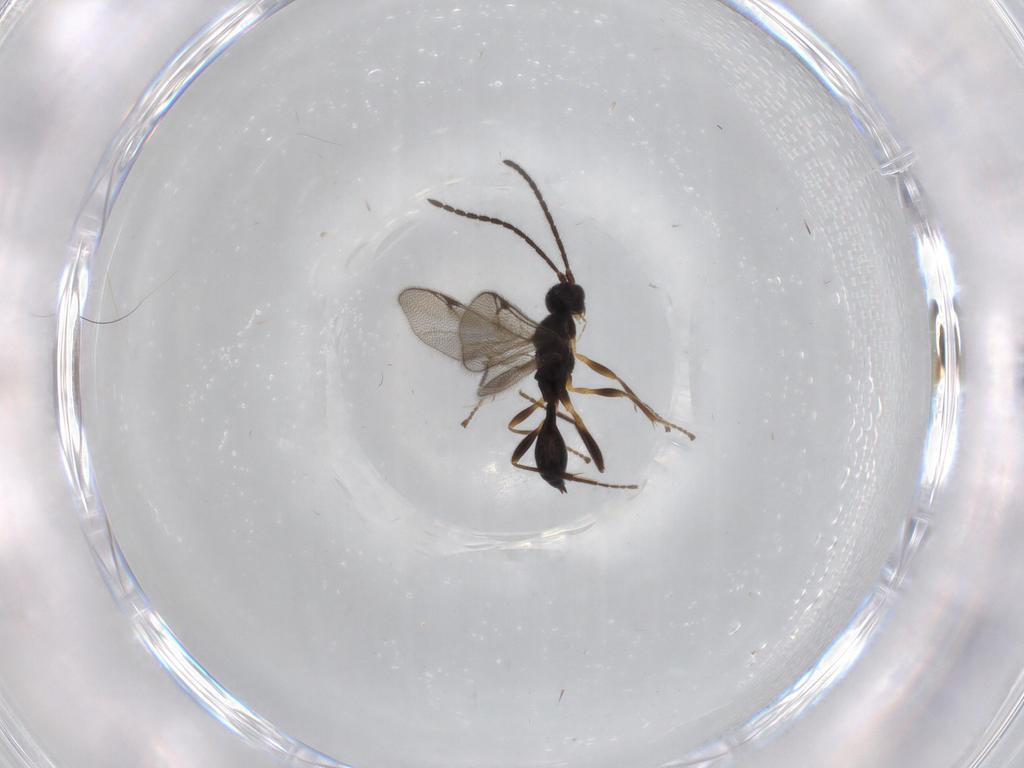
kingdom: Animalia
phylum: Arthropoda
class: Insecta
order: Hymenoptera
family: Proctotrupidae
